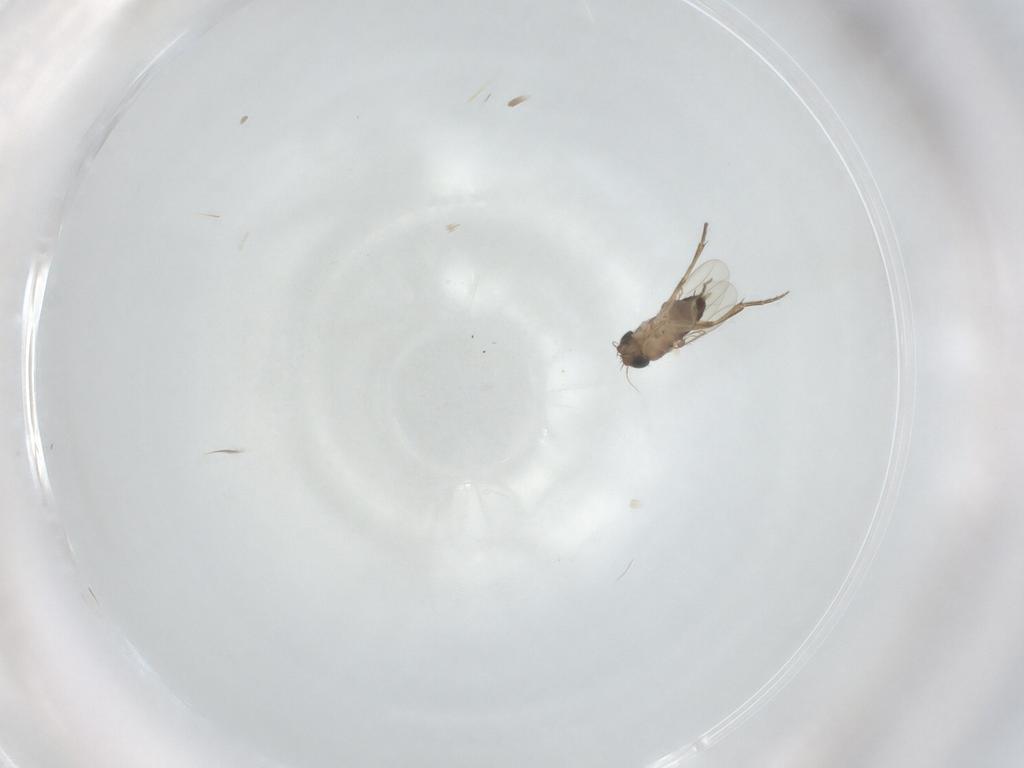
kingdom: Animalia
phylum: Arthropoda
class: Insecta
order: Diptera
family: Phoridae
